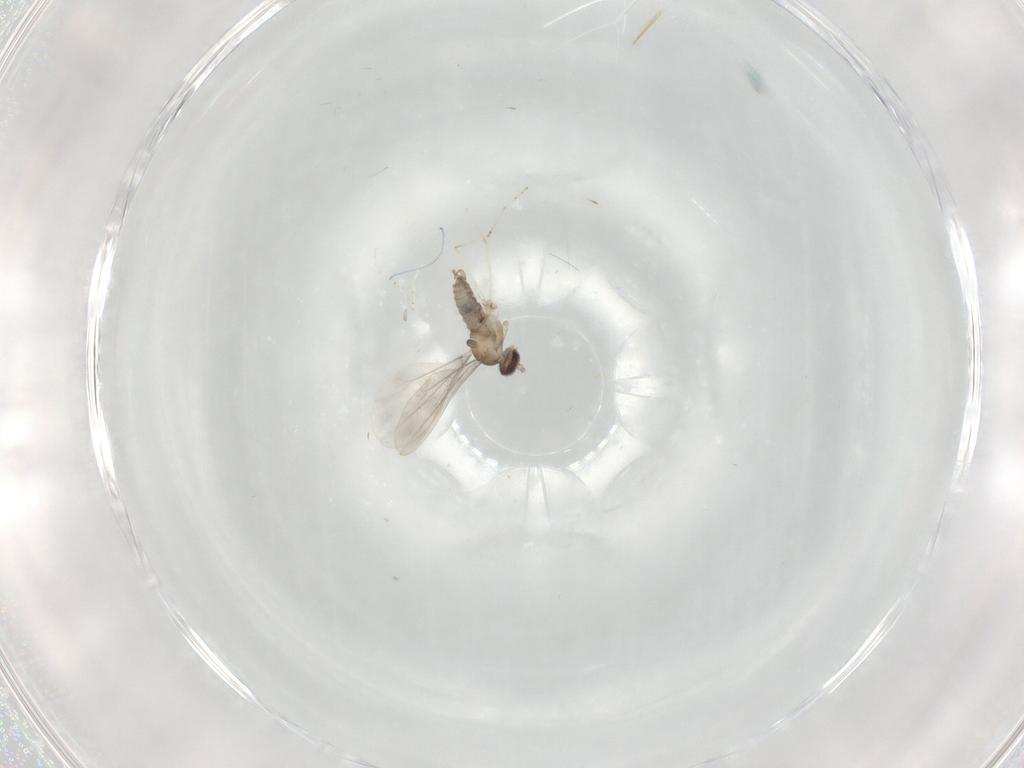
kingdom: Animalia
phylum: Arthropoda
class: Insecta
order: Diptera
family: Cecidomyiidae
